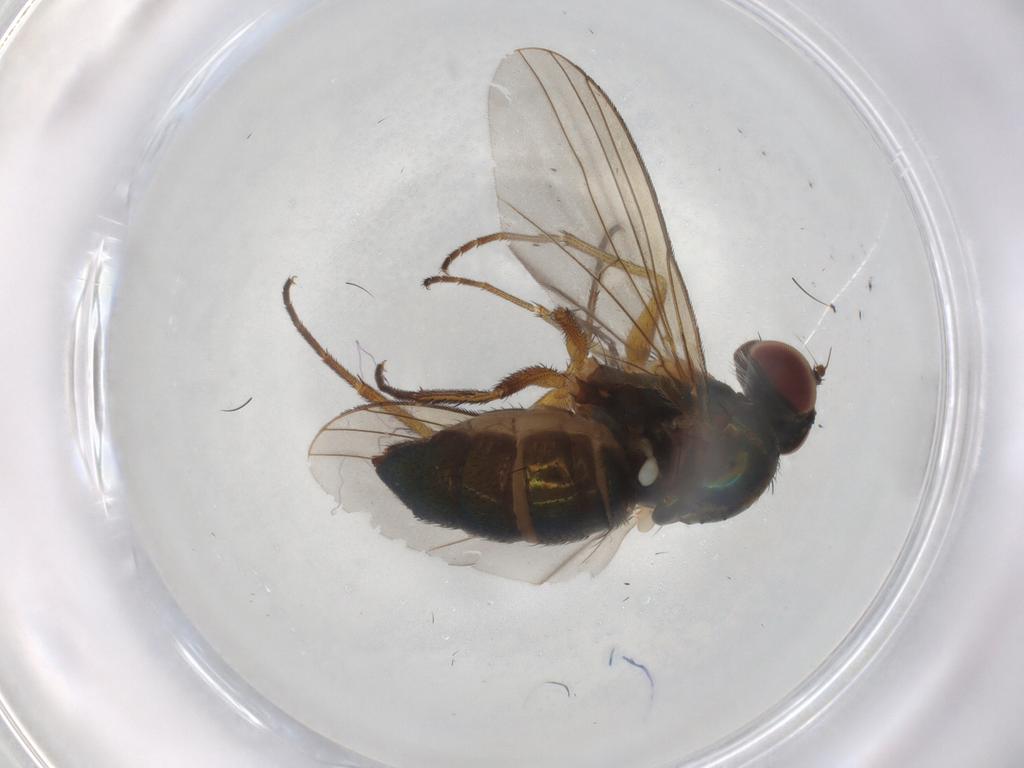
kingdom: Animalia
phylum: Arthropoda
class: Insecta
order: Diptera
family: Dolichopodidae
